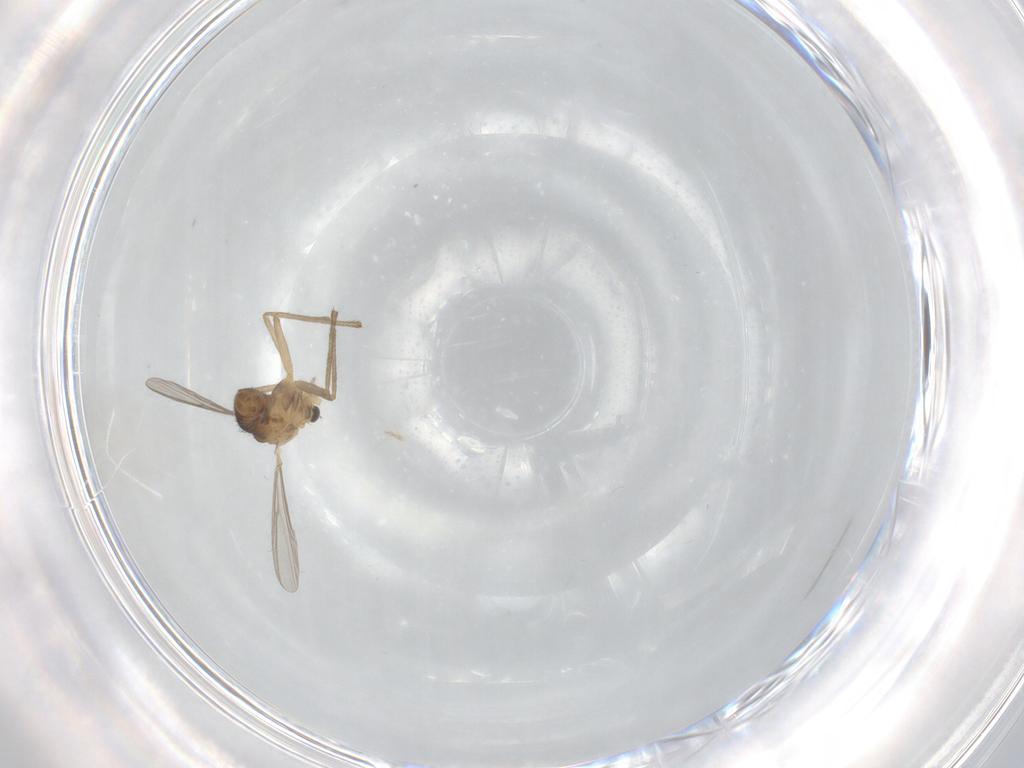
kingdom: Animalia
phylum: Arthropoda
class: Insecta
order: Diptera
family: Chironomidae
